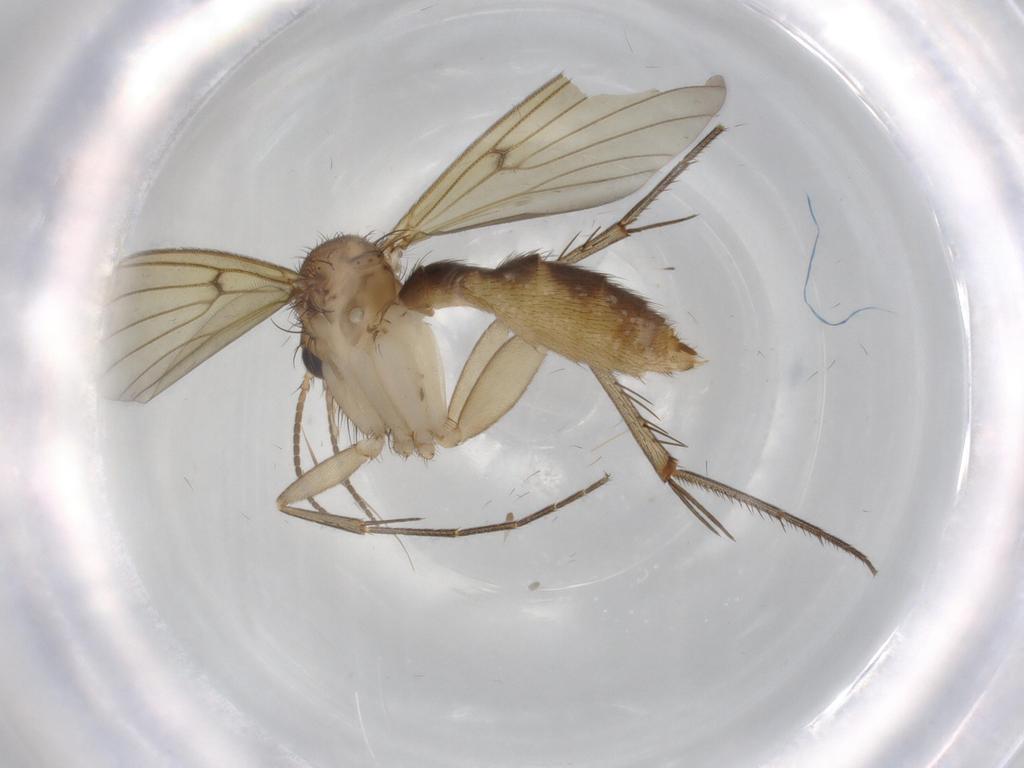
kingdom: Animalia
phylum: Arthropoda
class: Insecta
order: Diptera
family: Mycetophilidae
